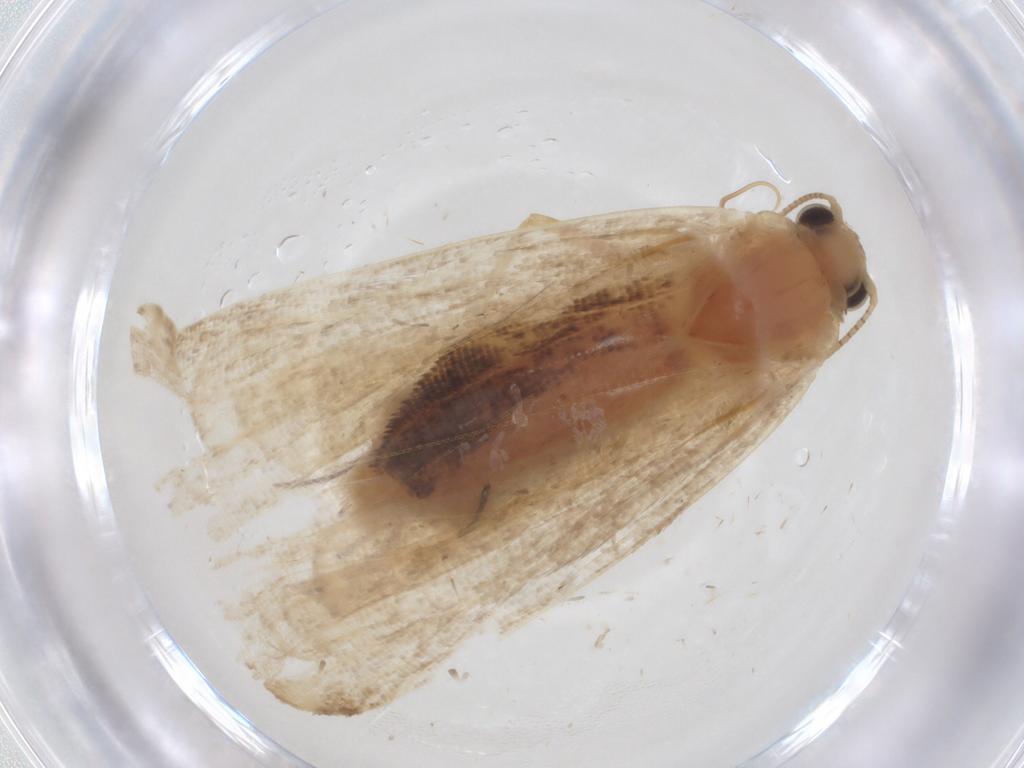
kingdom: Animalia
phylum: Arthropoda
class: Insecta
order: Lepidoptera
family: Erebidae
